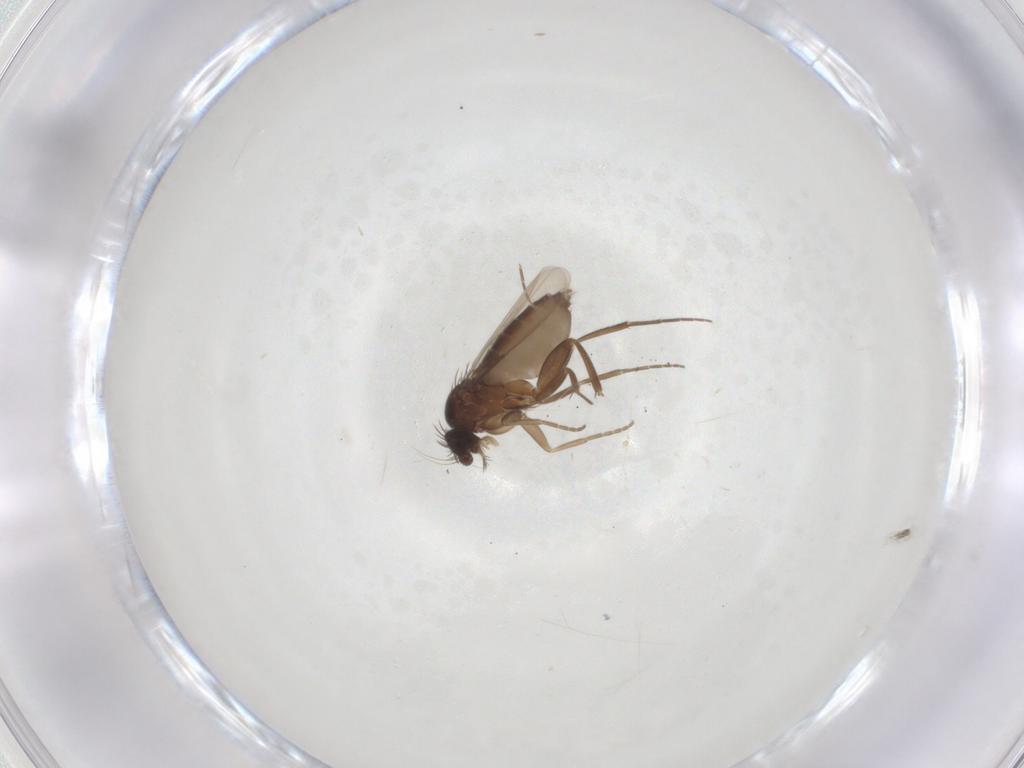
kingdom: Animalia
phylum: Arthropoda
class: Insecta
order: Diptera
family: Phoridae
